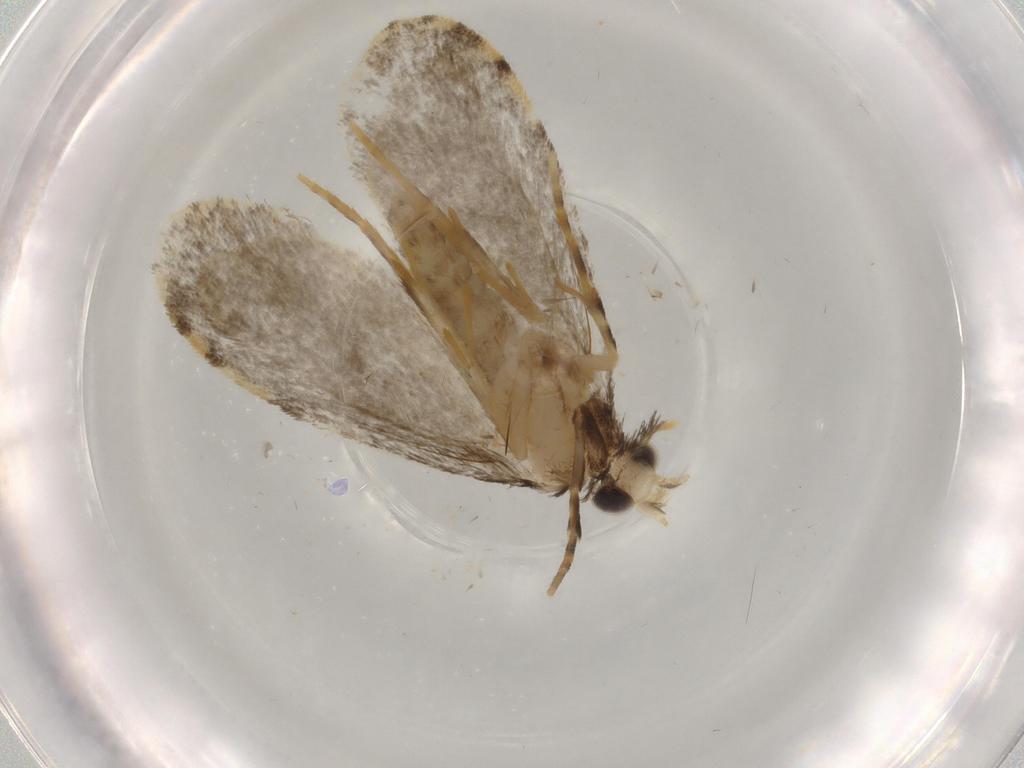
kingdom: Animalia
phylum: Arthropoda
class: Insecta
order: Lepidoptera
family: Psychidae
